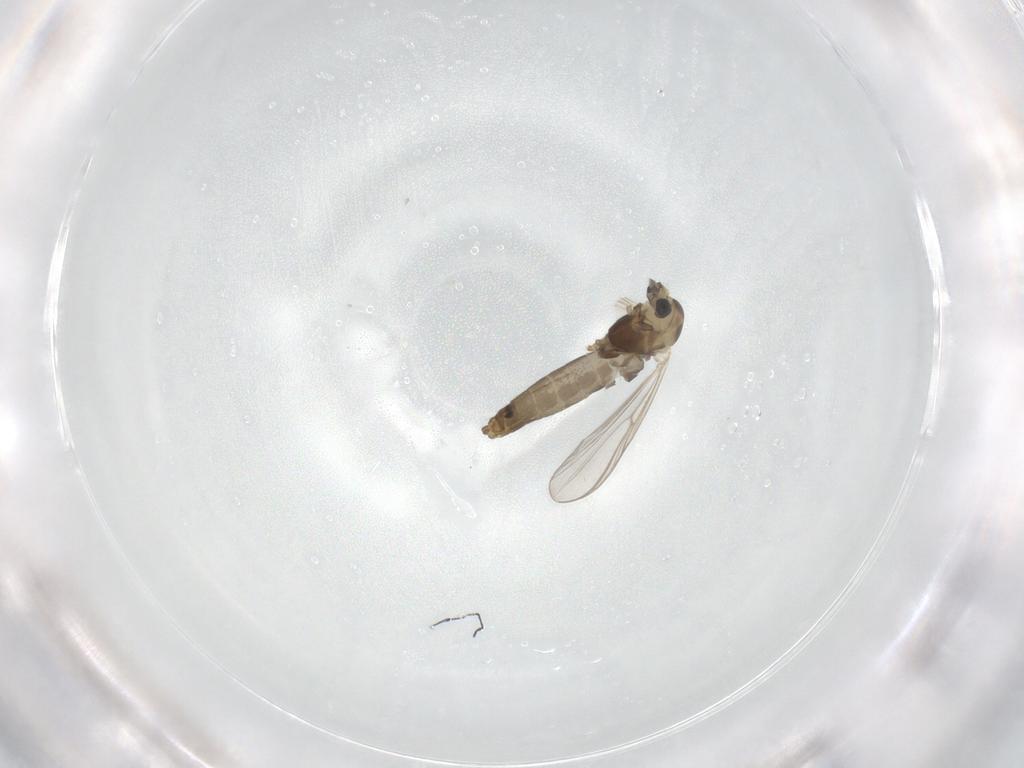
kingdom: Animalia
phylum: Arthropoda
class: Insecta
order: Diptera
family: Chironomidae
